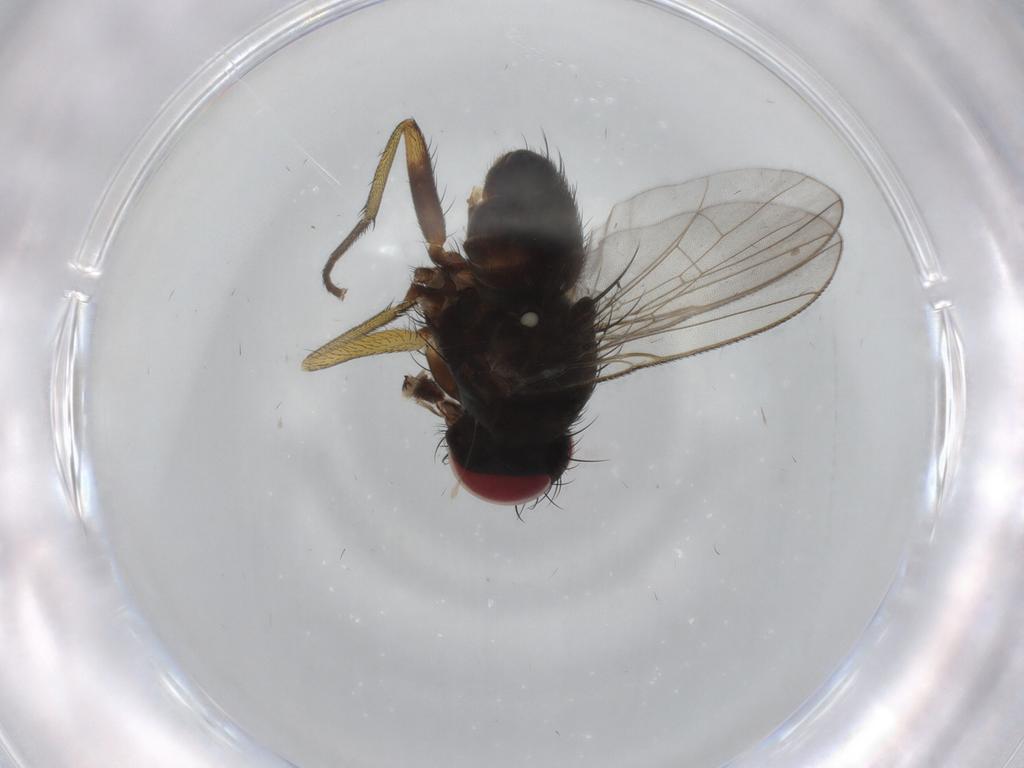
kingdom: Animalia
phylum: Arthropoda
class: Insecta
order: Diptera
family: Muscidae
